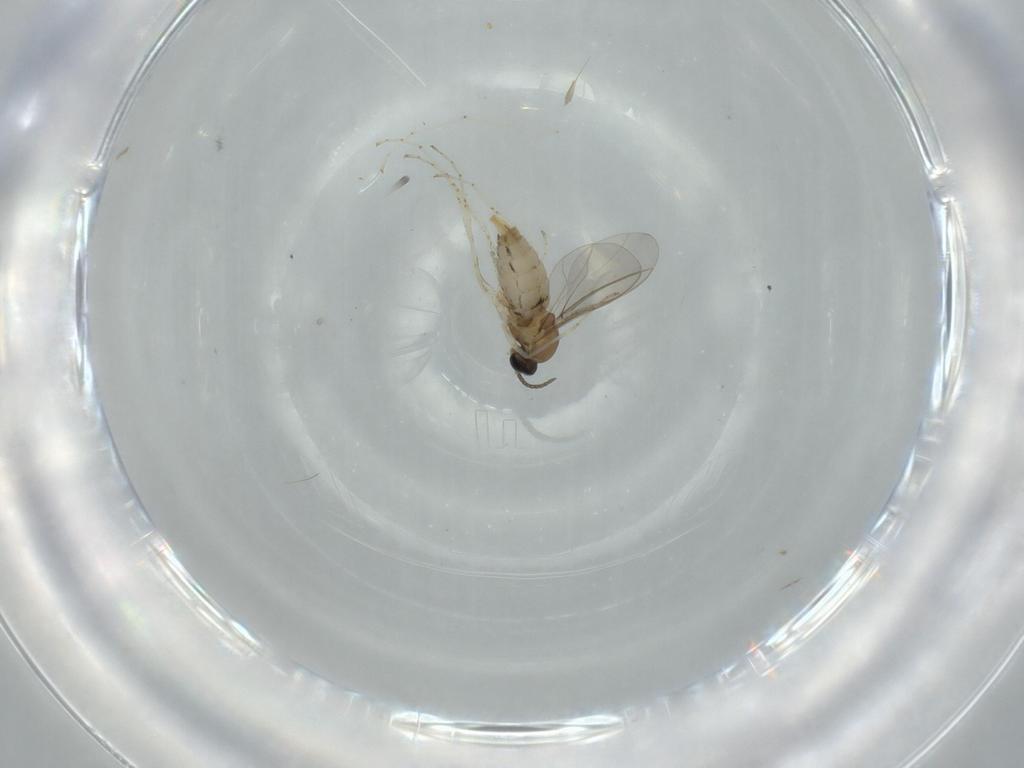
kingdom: Animalia
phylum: Arthropoda
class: Insecta
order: Diptera
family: Cecidomyiidae
